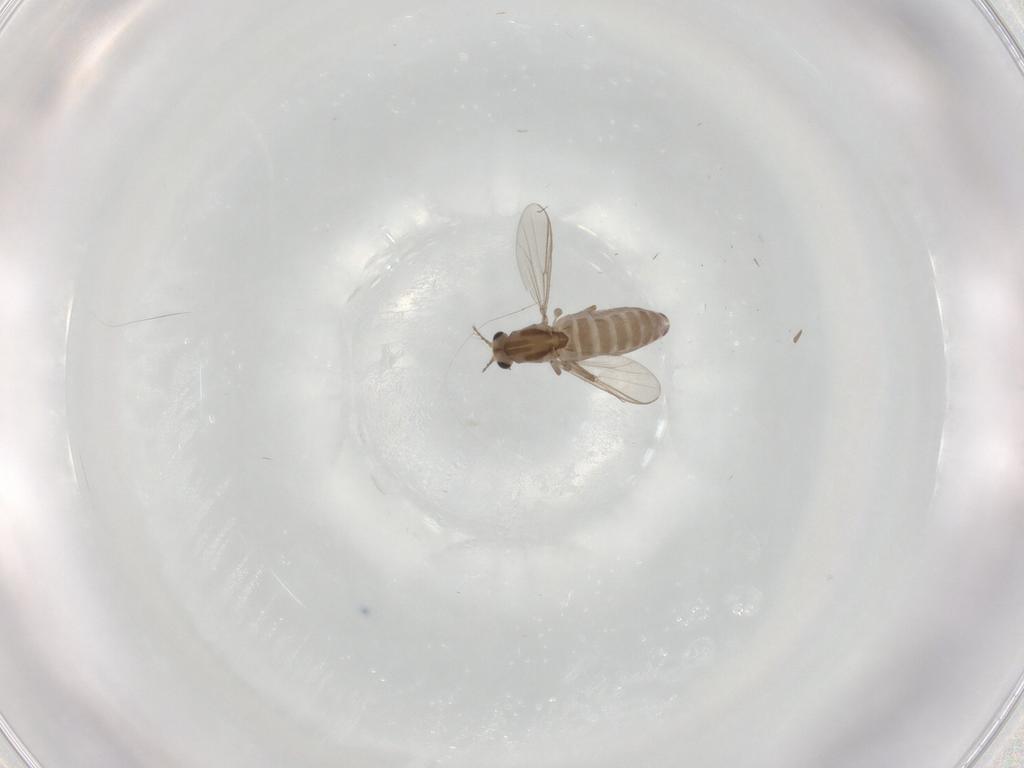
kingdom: Animalia
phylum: Arthropoda
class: Insecta
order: Diptera
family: Chironomidae
